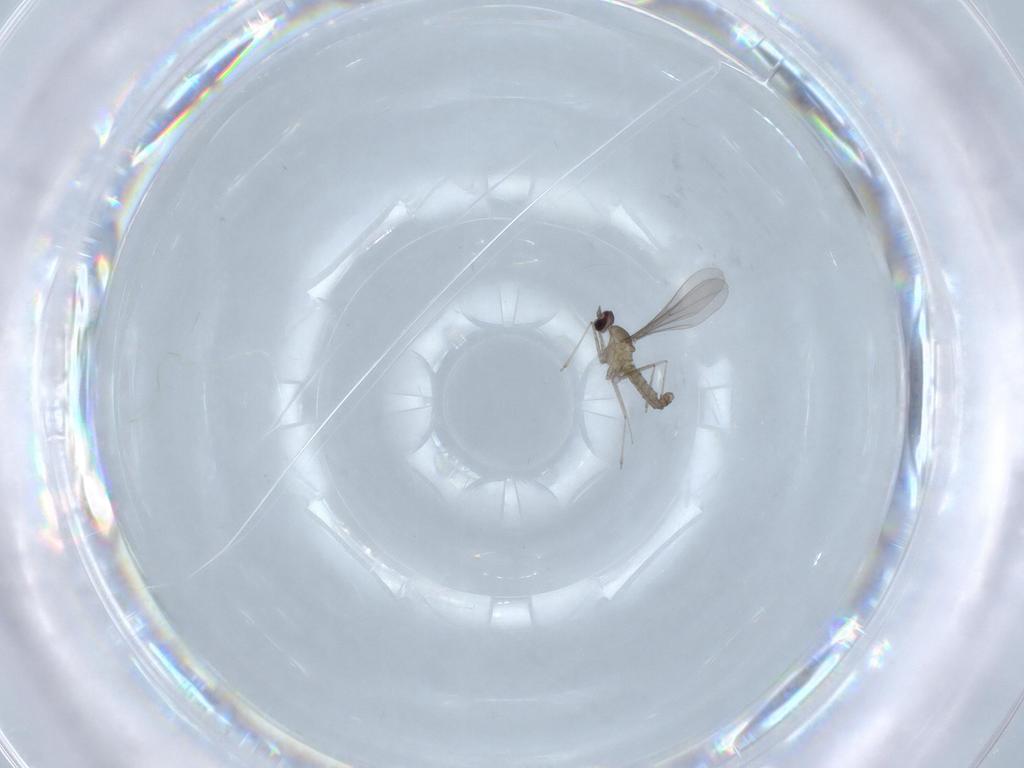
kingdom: Animalia
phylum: Arthropoda
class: Insecta
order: Diptera
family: Cecidomyiidae
